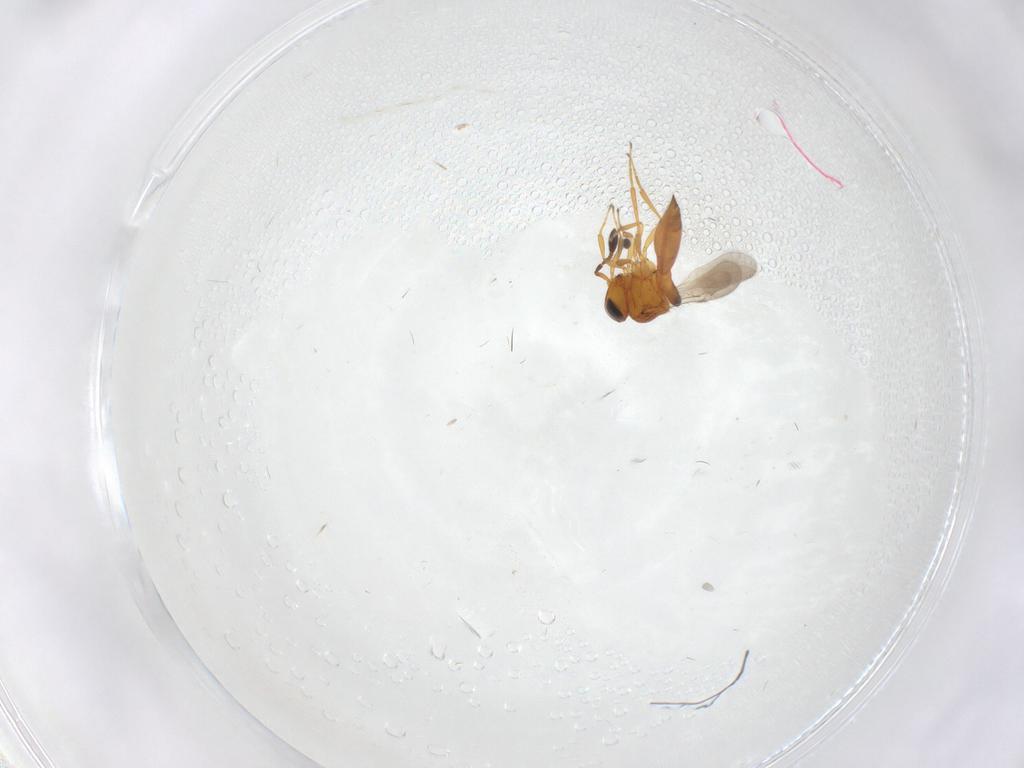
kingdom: Animalia
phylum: Arthropoda
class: Insecta
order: Hymenoptera
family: Scelionidae
